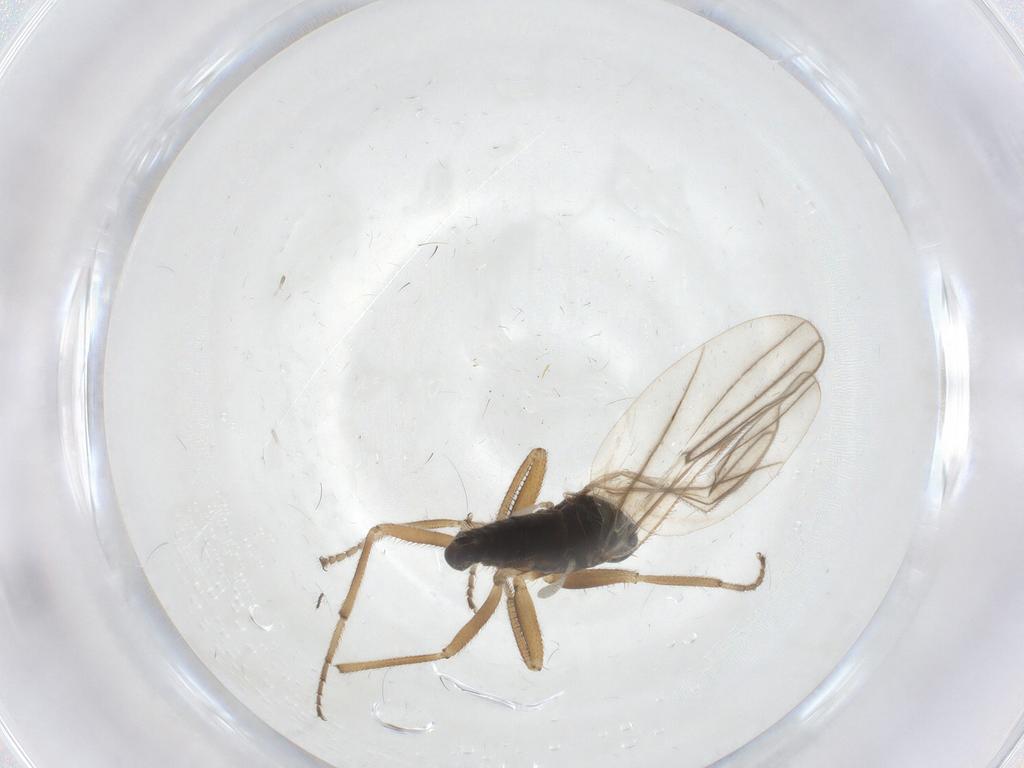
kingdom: Animalia
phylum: Arthropoda
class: Insecta
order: Diptera
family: Hybotidae
